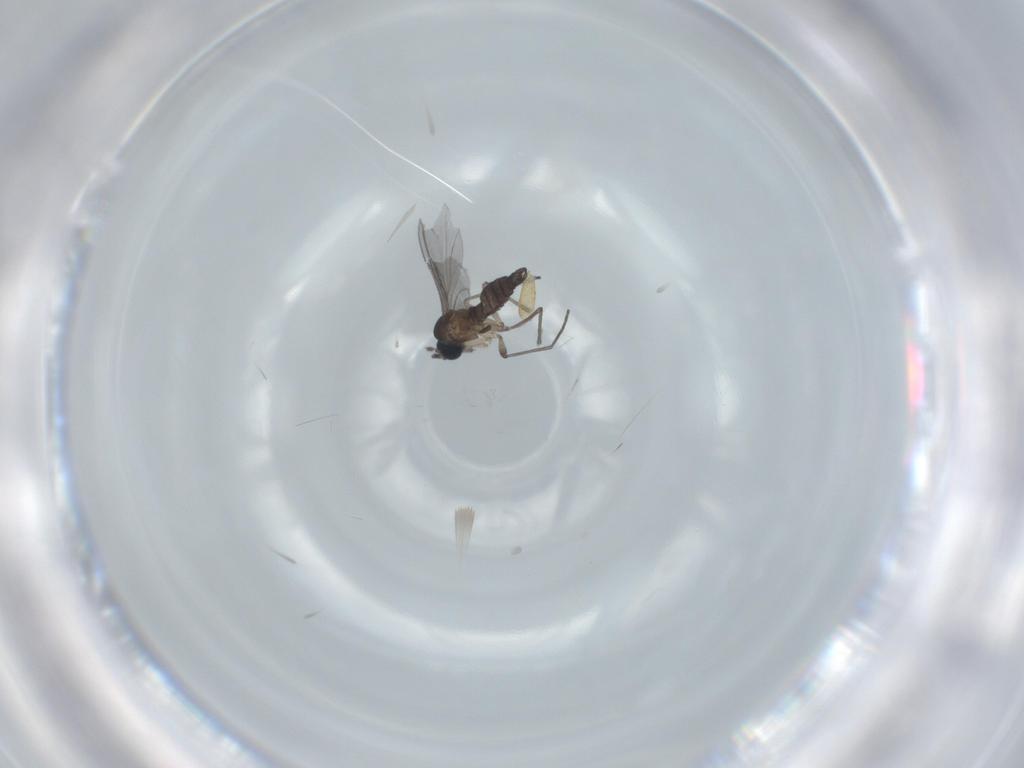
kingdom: Animalia
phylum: Arthropoda
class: Insecta
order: Diptera
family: Sciaridae
